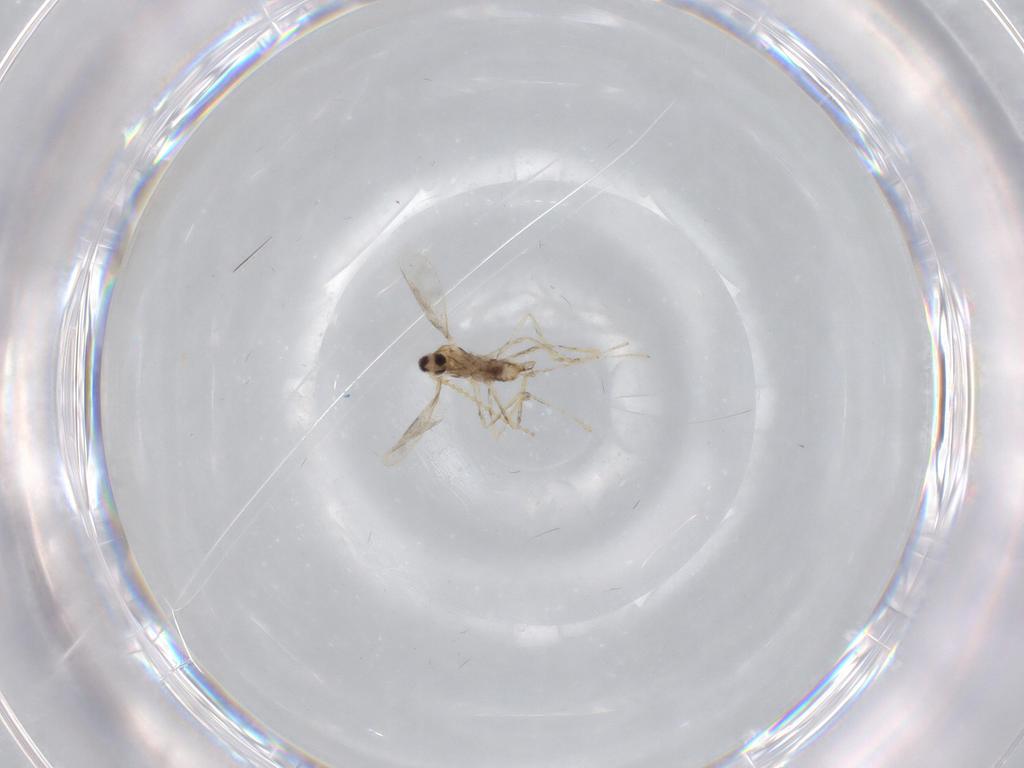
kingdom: Animalia
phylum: Arthropoda
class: Insecta
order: Diptera
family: Cecidomyiidae
